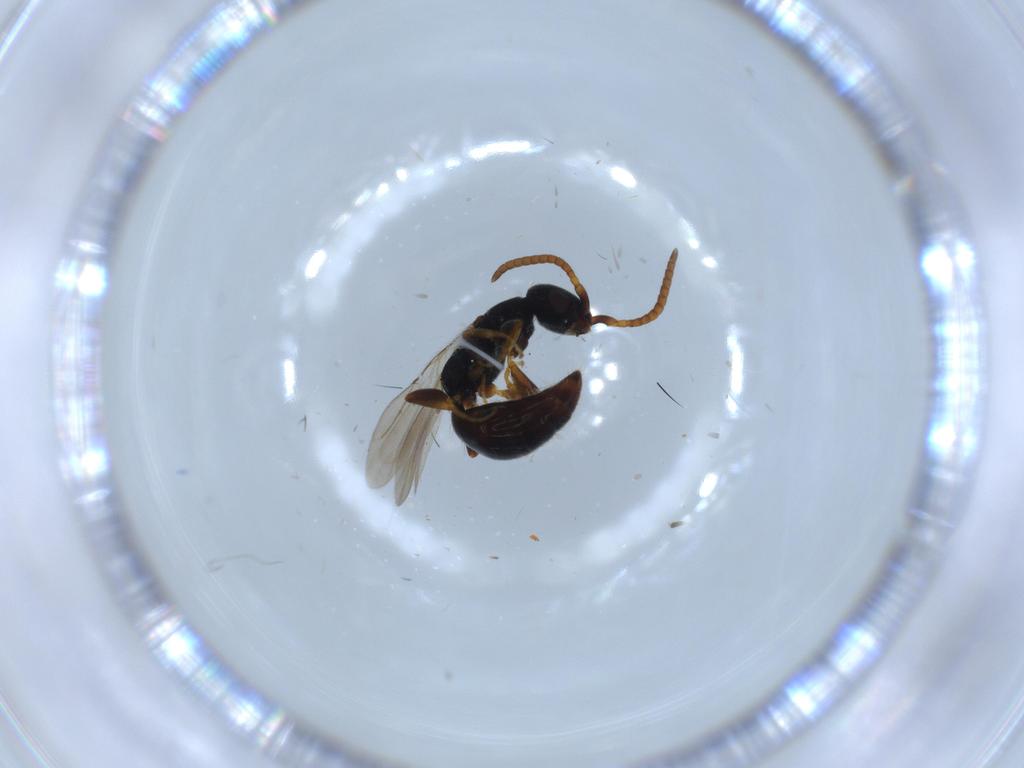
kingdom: Animalia
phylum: Arthropoda
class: Insecta
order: Hymenoptera
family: Bethylidae
